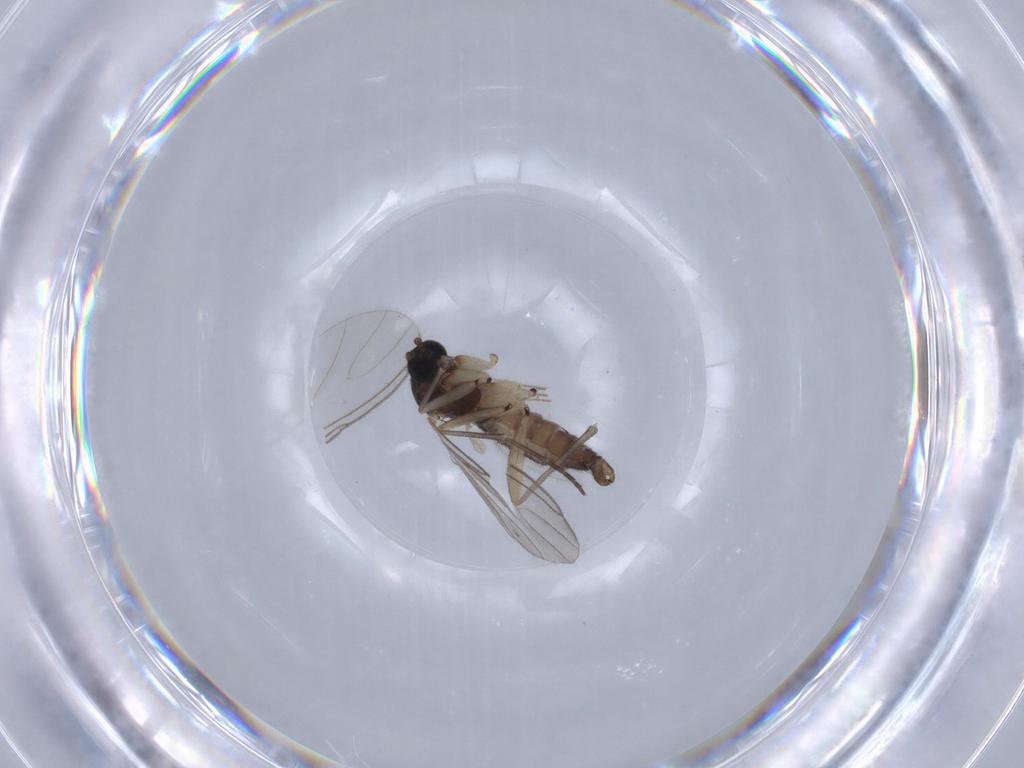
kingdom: Animalia
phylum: Arthropoda
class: Insecta
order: Diptera
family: Sciaridae
